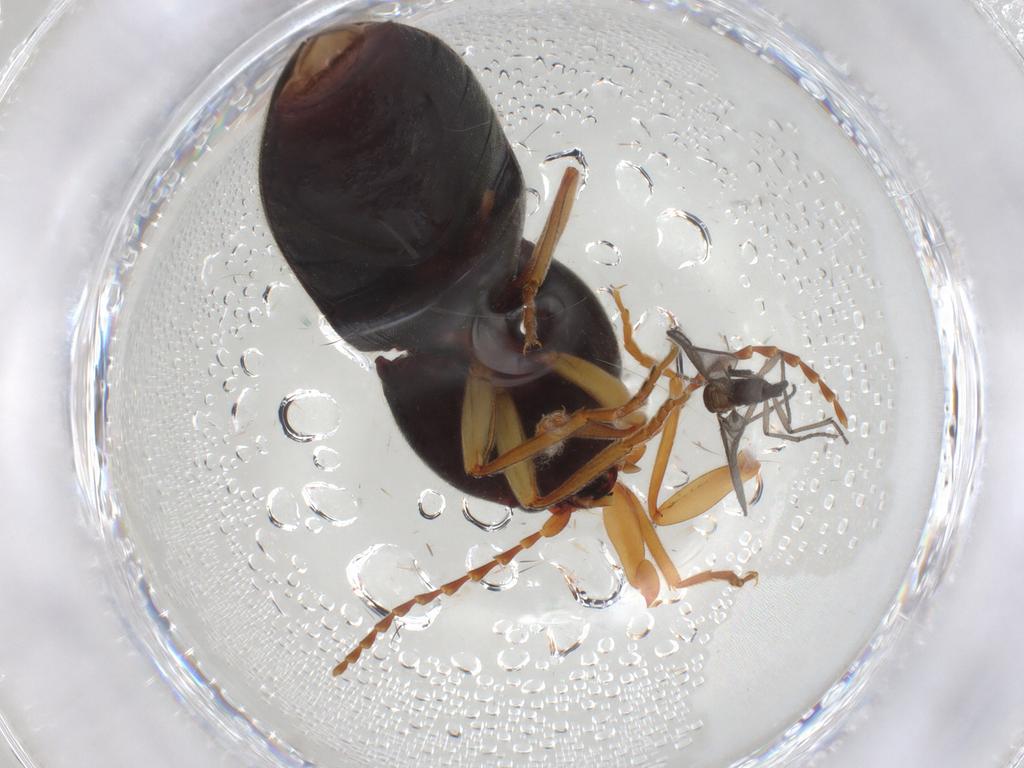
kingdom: Animalia
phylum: Arthropoda
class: Insecta
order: Diptera
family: Sciaridae
